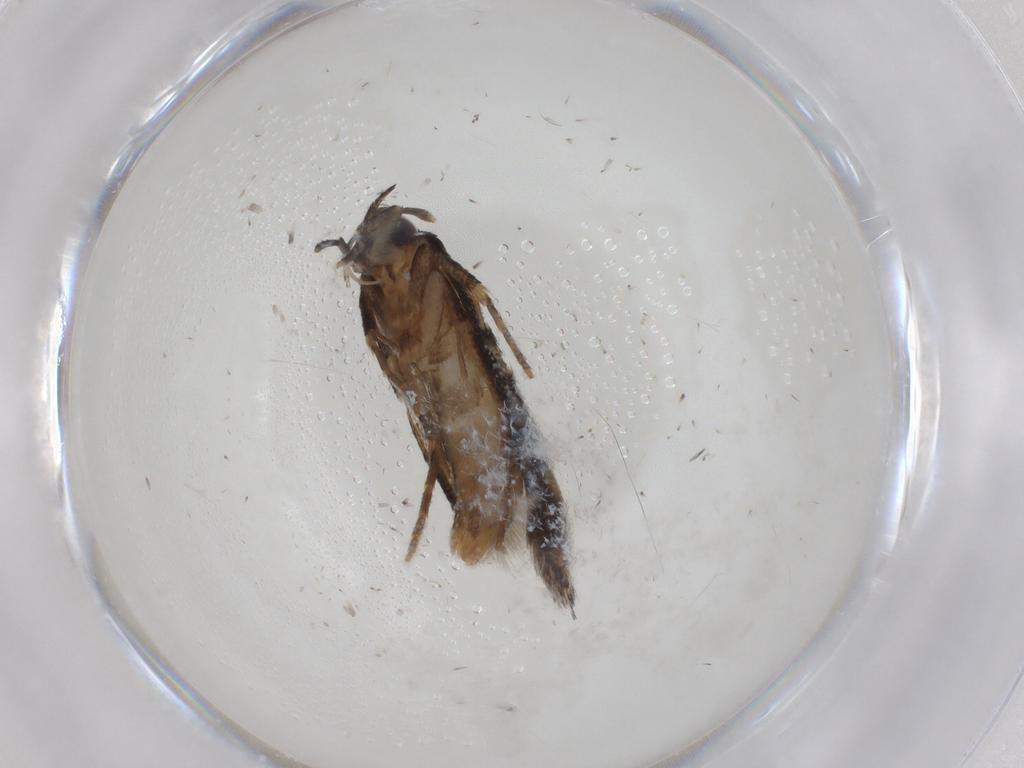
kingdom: Animalia
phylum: Arthropoda
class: Insecta
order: Lepidoptera
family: Cosmopterigidae
